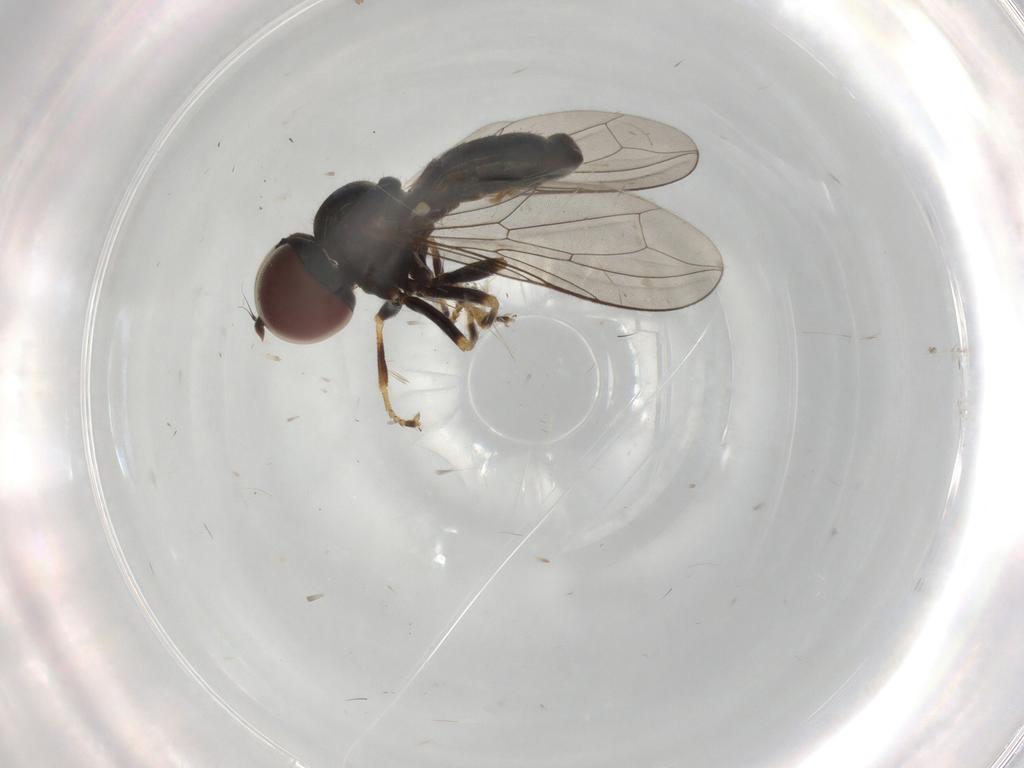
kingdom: Animalia
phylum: Arthropoda
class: Insecta
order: Diptera
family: Pipunculidae
